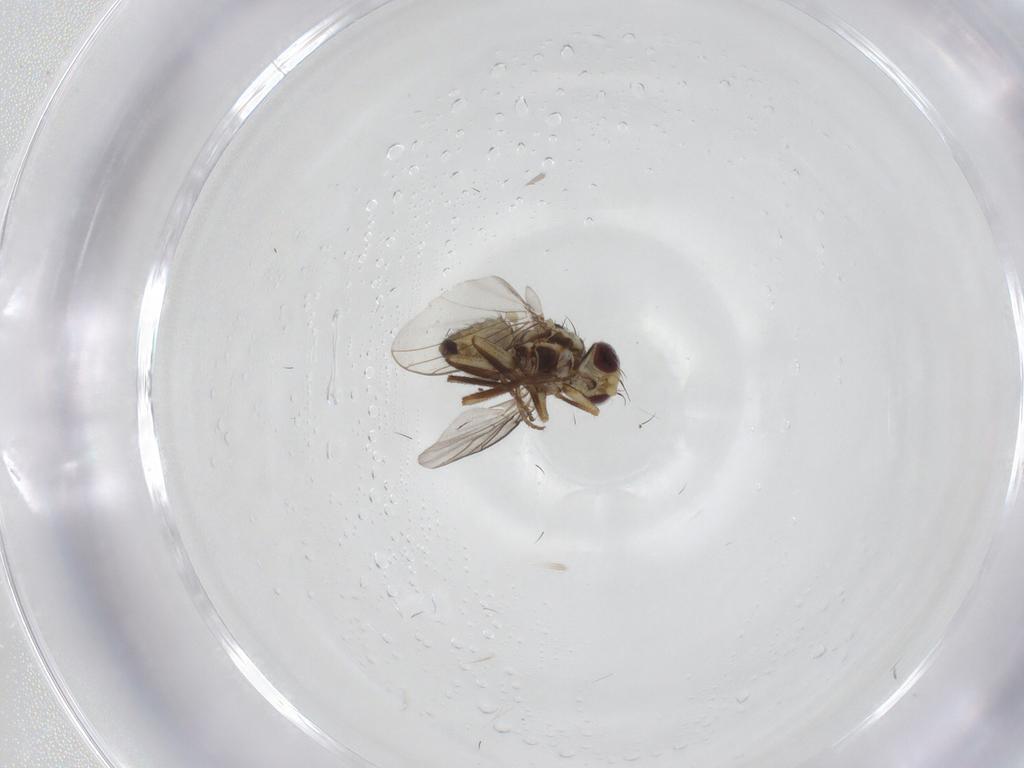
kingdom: Animalia
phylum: Arthropoda
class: Insecta
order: Diptera
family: Agromyzidae
